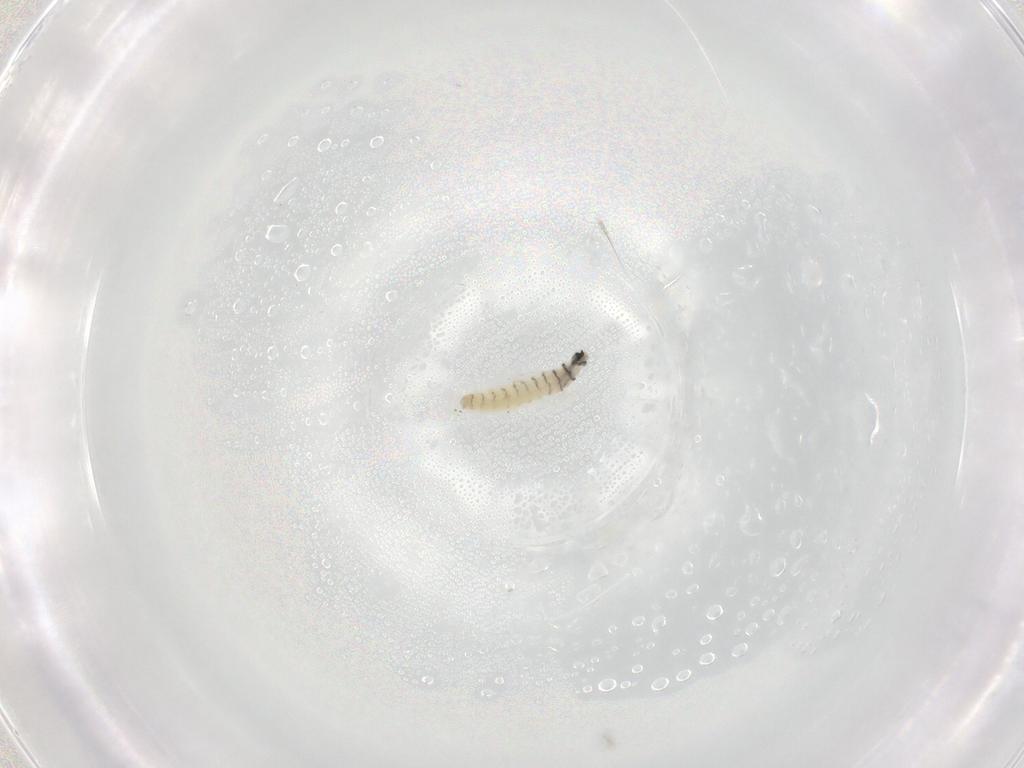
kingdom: Animalia
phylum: Arthropoda
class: Insecta
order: Diptera
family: Sarcophagidae
